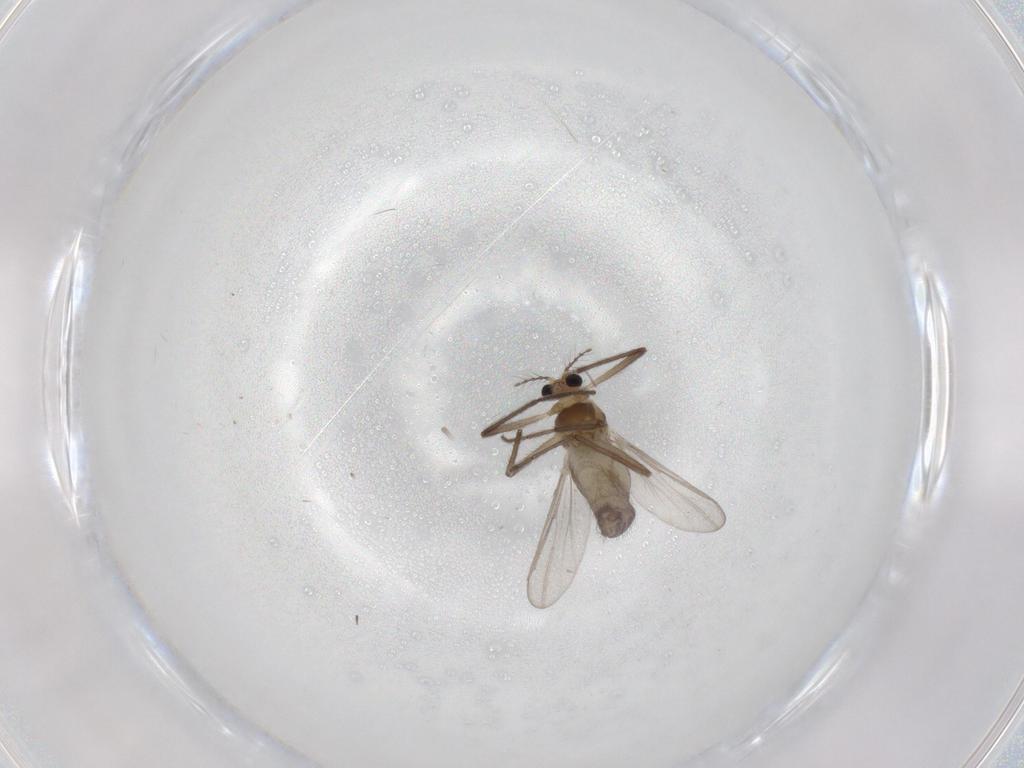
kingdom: Animalia
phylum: Arthropoda
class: Insecta
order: Diptera
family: Chironomidae
